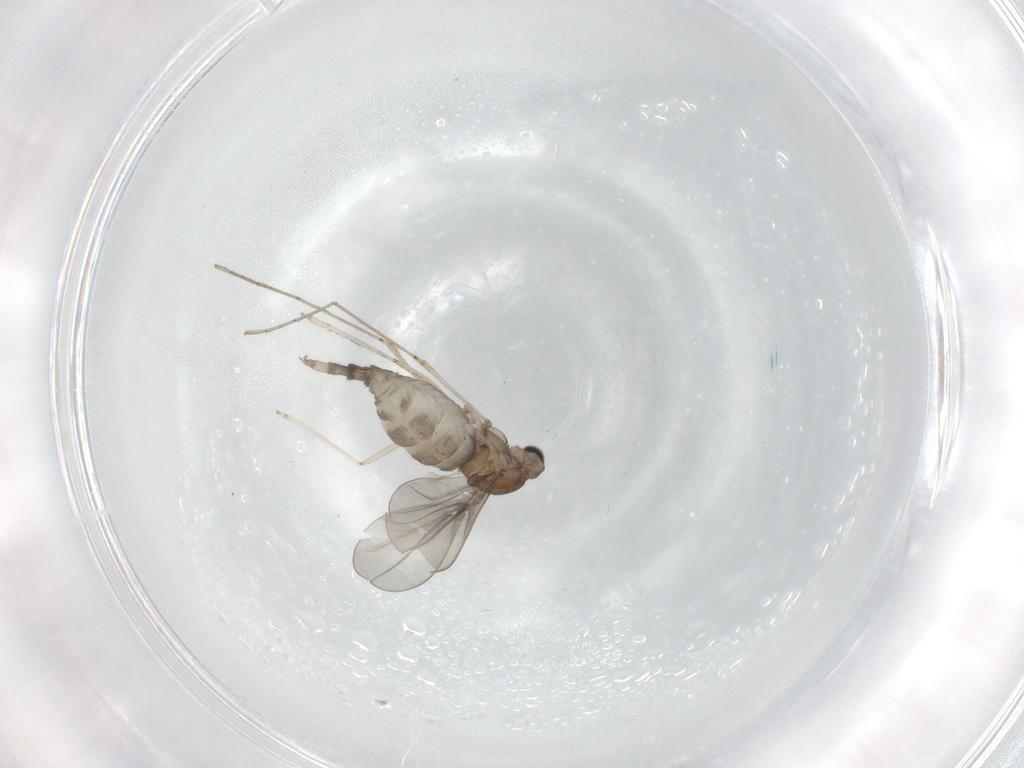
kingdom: Animalia
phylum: Arthropoda
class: Insecta
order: Diptera
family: Cecidomyiidae
